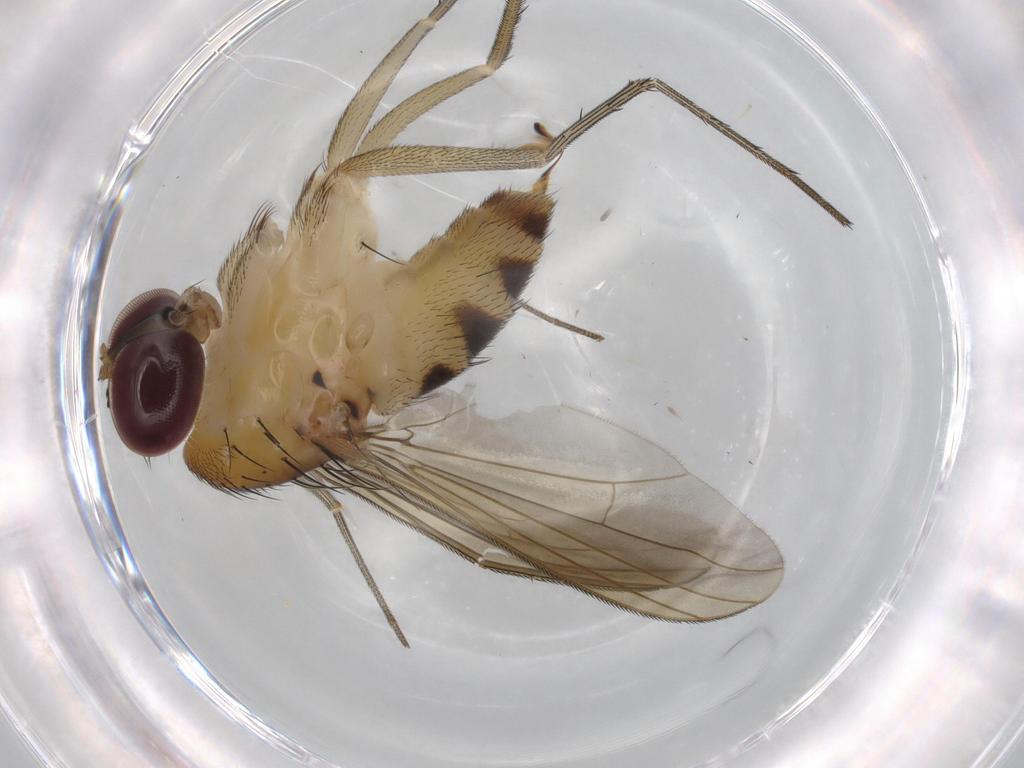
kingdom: Animalia
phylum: Arthropoda
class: Insecta
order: Diptera
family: Dolichopodidae
